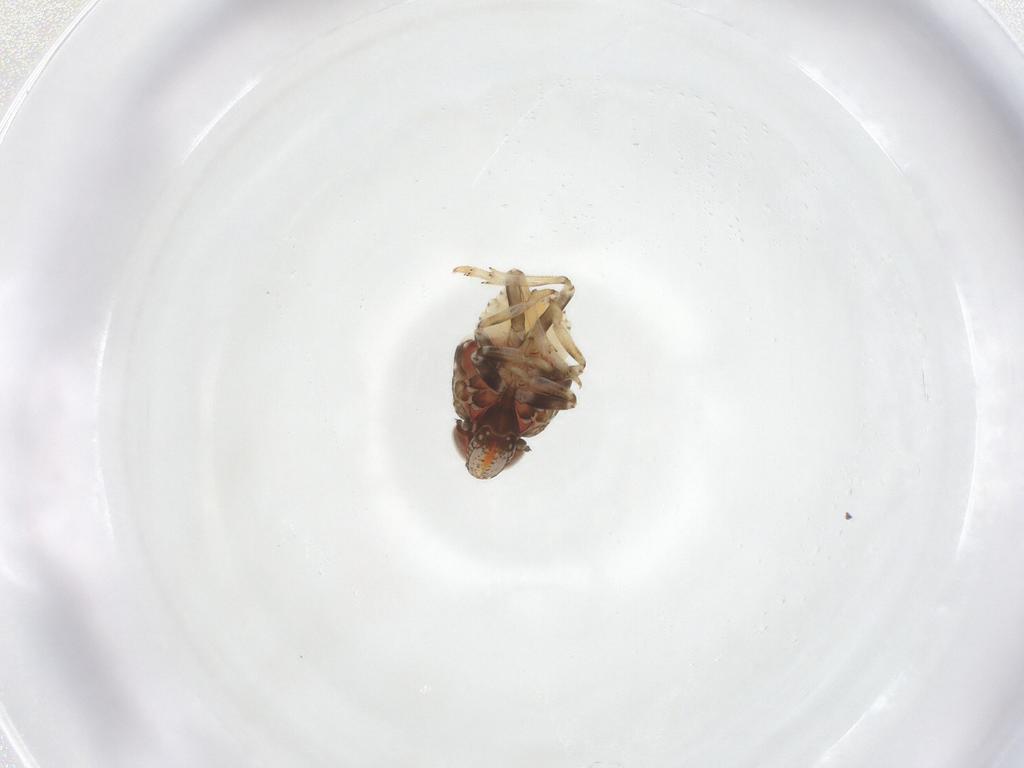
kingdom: Animalia
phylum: Arthropoda
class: Insecta
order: Hemiptera
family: Issidae
